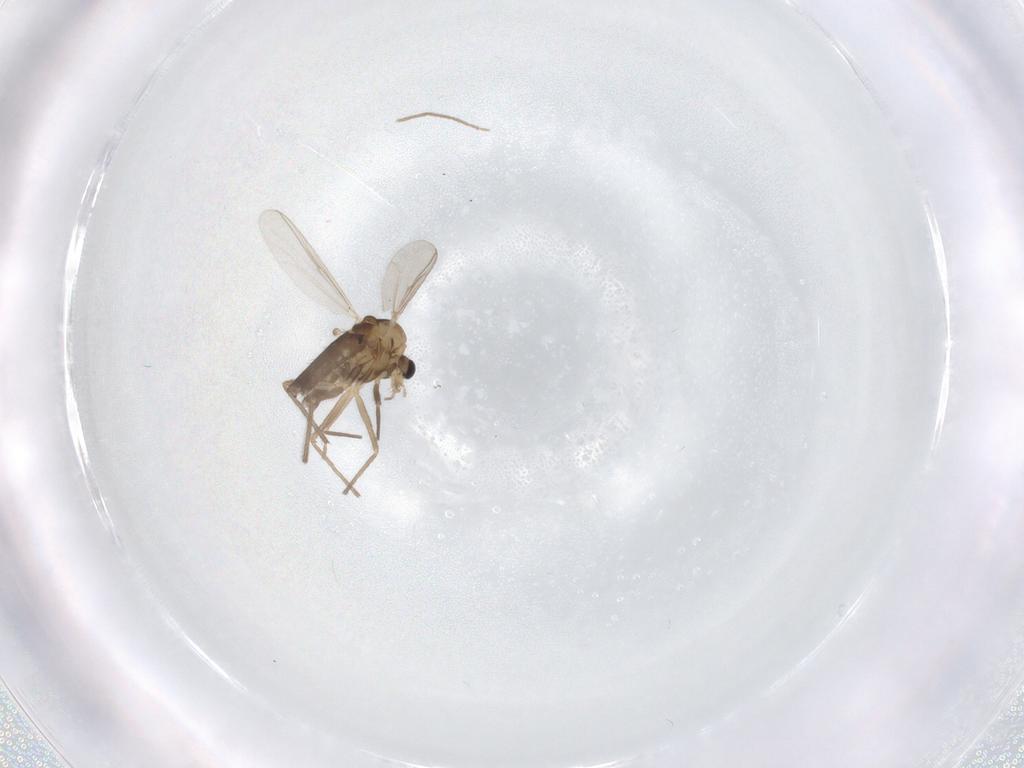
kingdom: Animalia
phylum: Arthropoda
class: Insecta
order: Diptera
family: Chironomidae
